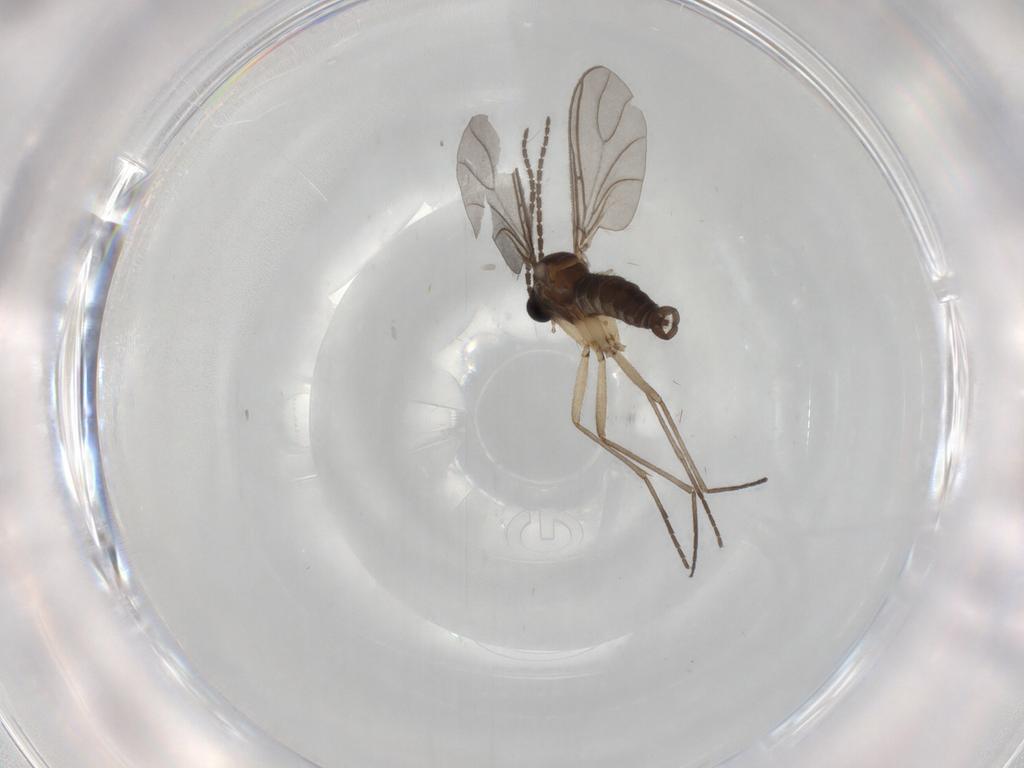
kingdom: Animalia
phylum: Arthropoda
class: Insecta
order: Diptera
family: Sciaridae
